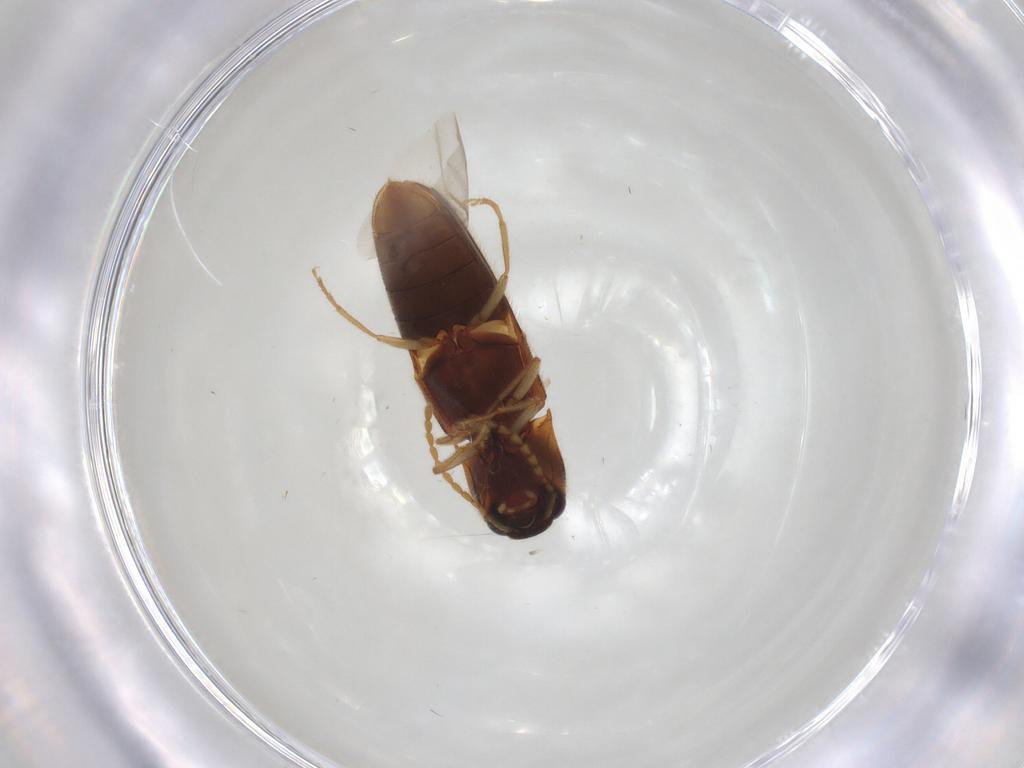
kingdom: Animalia
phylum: Arthropoda
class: Insecta
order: Coleoptera
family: Elateridae
